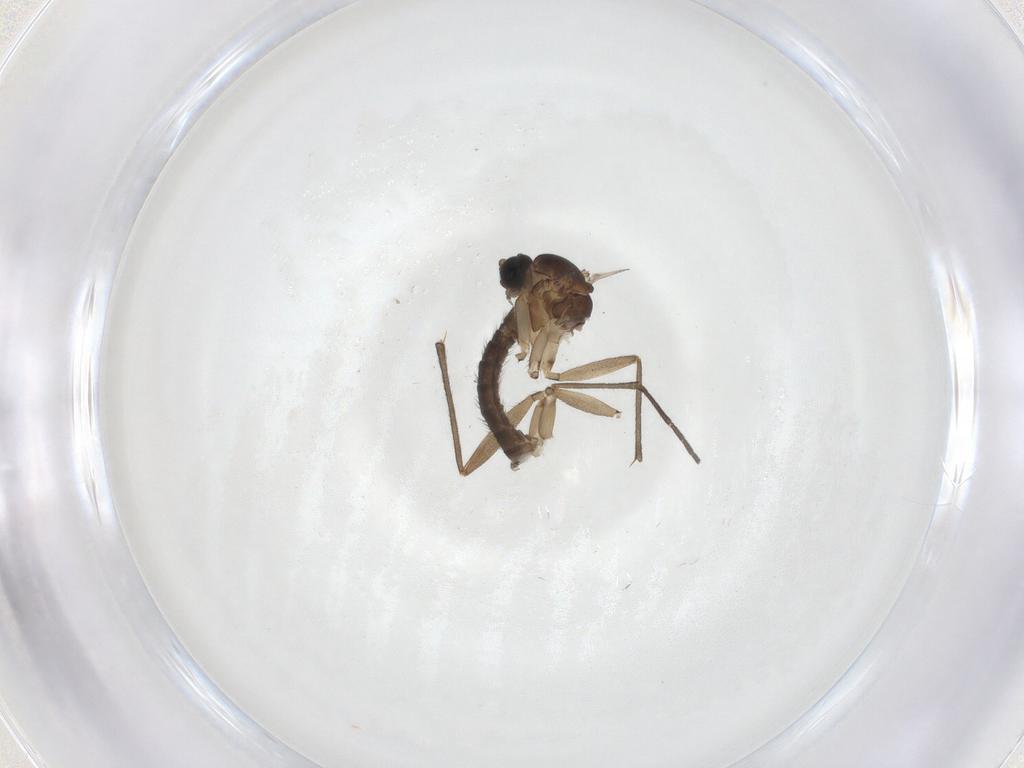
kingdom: Animalia
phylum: Arthropoda
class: Insecta
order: Diptera
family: Sciaridae
